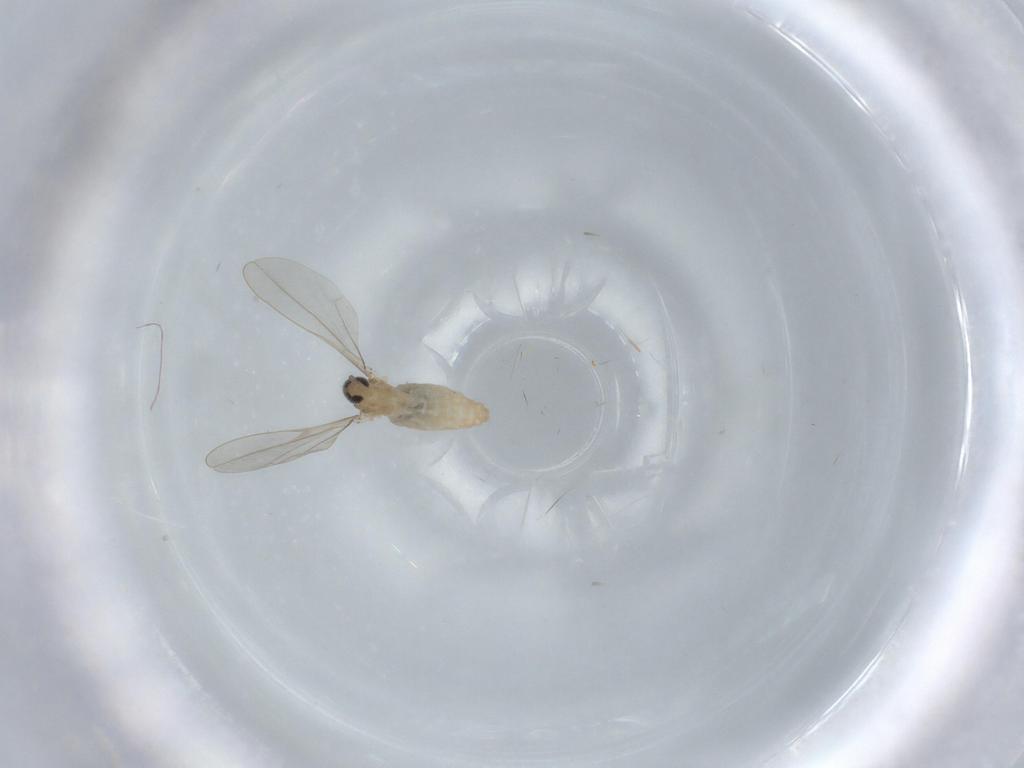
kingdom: Animalia
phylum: Arthropoda
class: Insecta
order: Diptera
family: Cecidomyiidae
